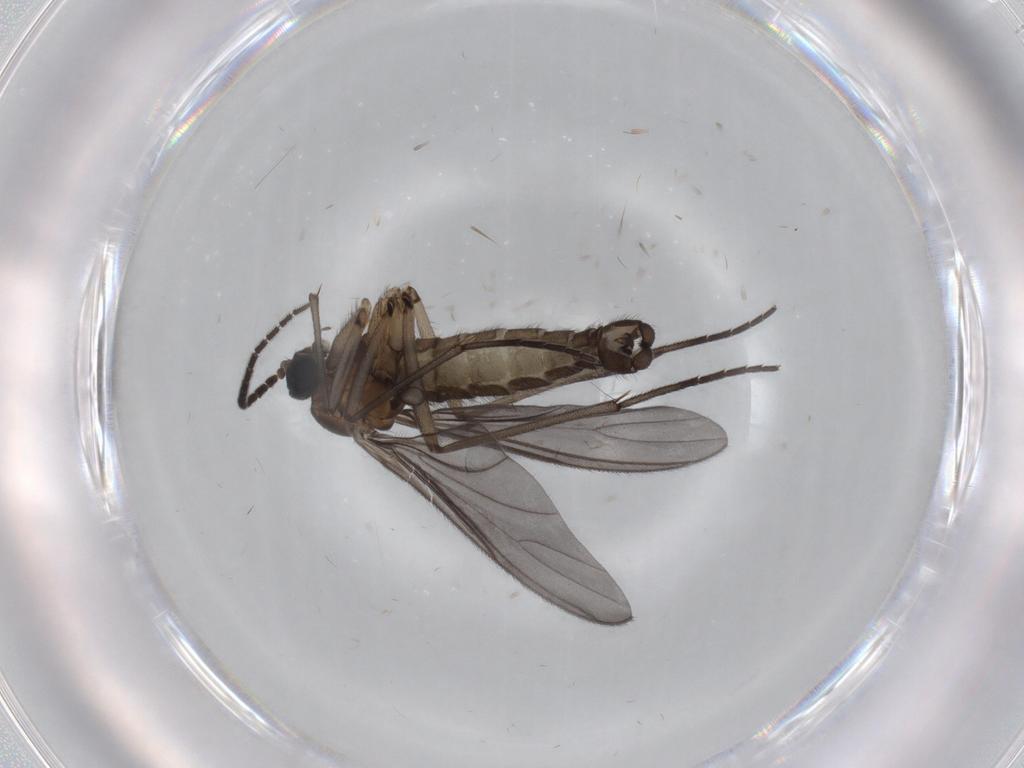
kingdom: Animalia
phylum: Arthropoda
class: Insecta
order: Diptera
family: Sciaridae
